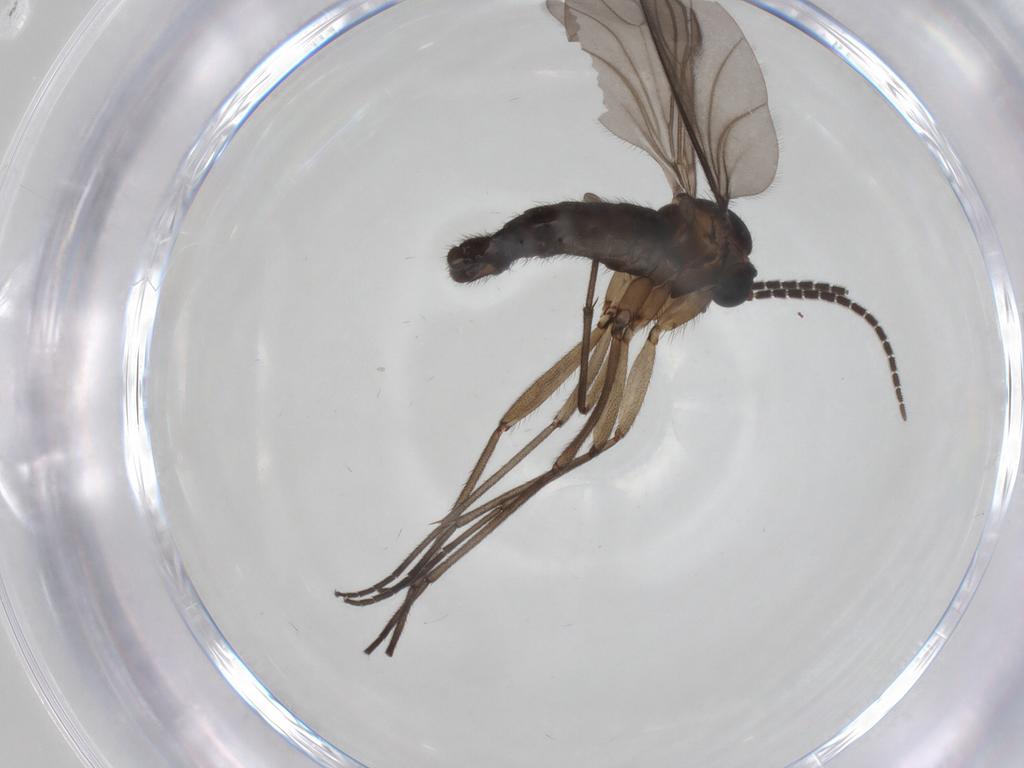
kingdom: Animalia
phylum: Arthropoda
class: Insecta
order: Diptera
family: Sciaridae
